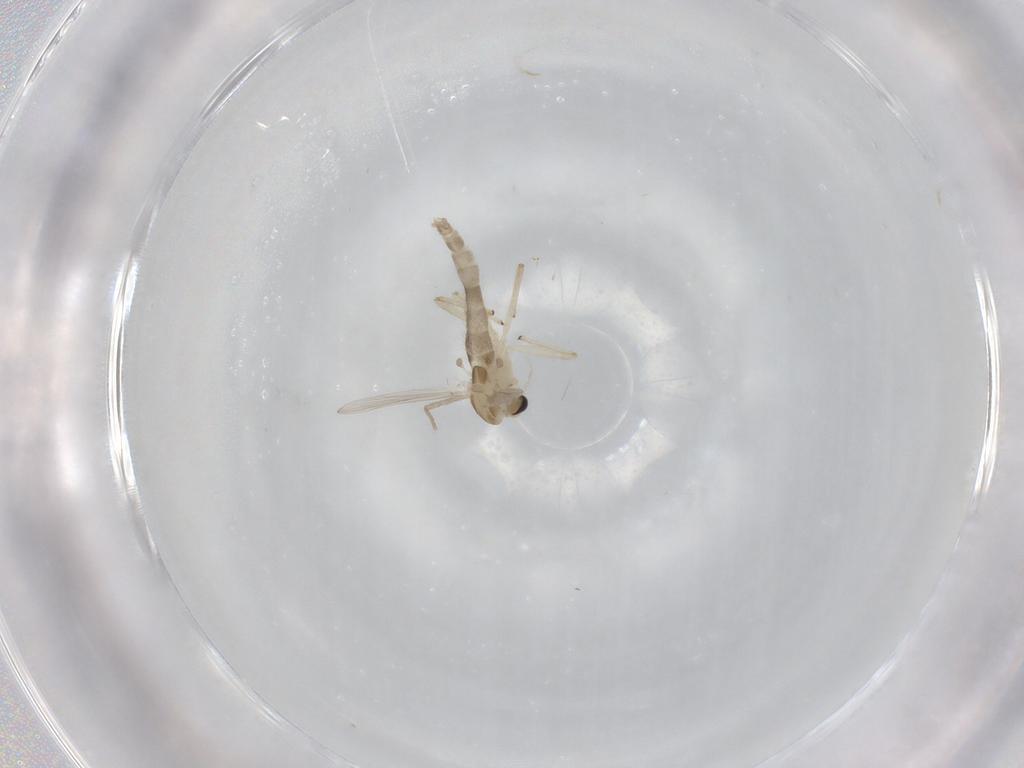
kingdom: Animalia
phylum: Arthropoda
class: Insecta
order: Diptera
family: Chironomidae
